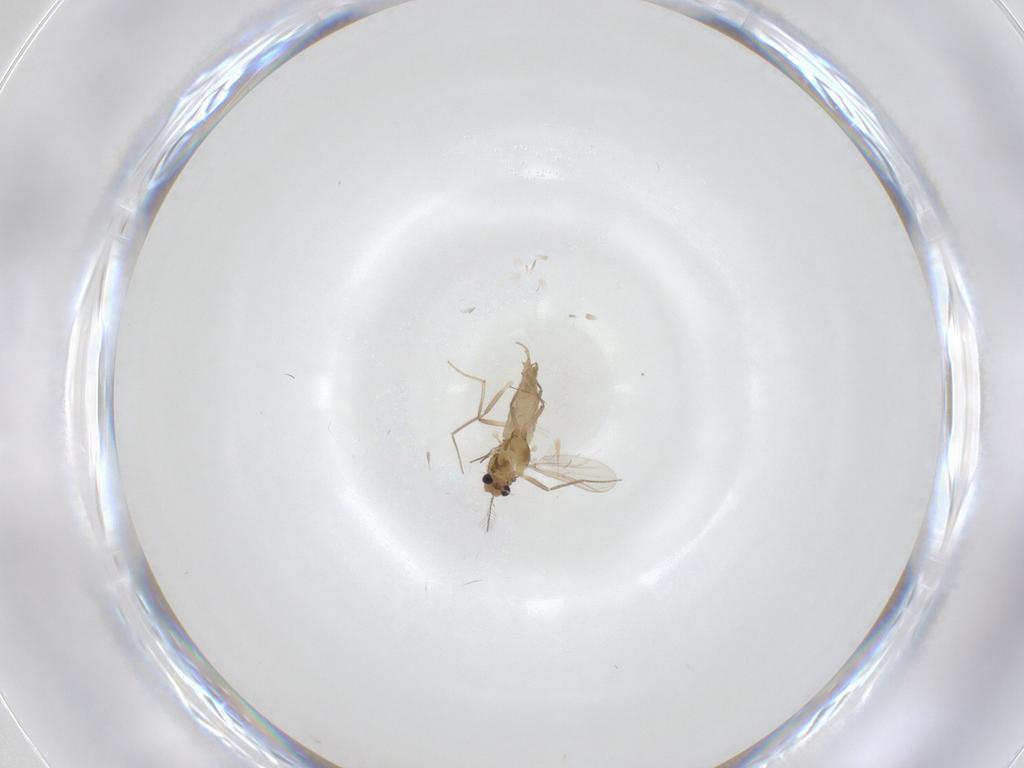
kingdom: Animalia
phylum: Arthropoda
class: Insecta
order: Diptera
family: Chironomidae
